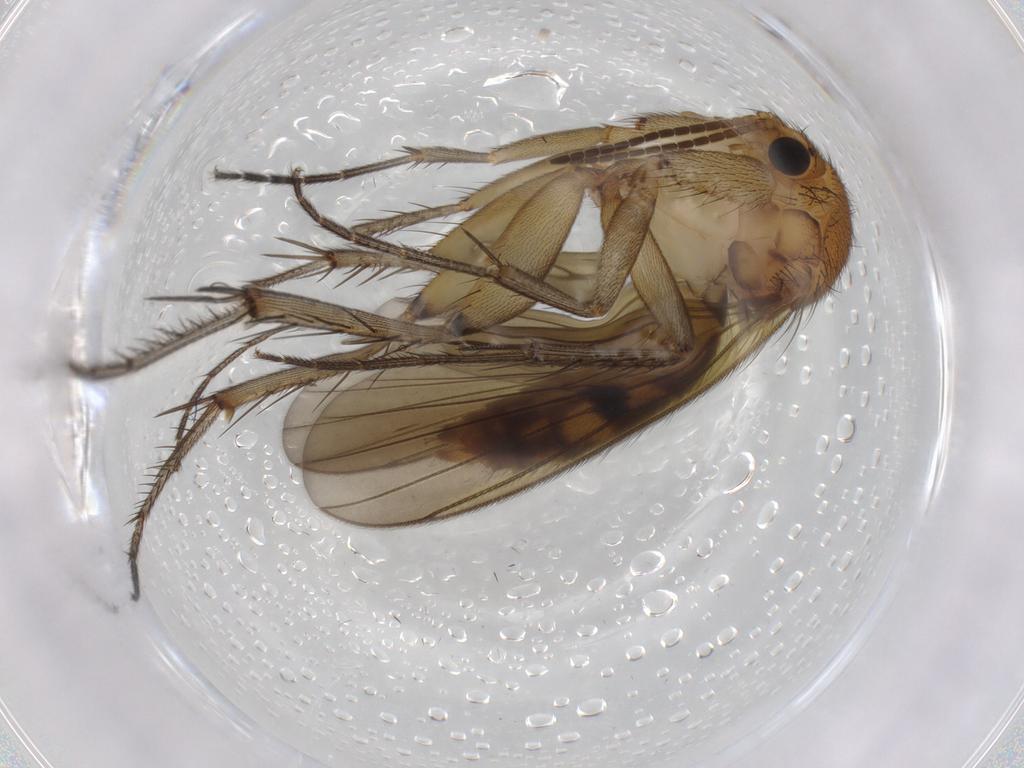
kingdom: Animalia
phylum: Arthropoda
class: Insecta
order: Diptera
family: Mycetophilidae
